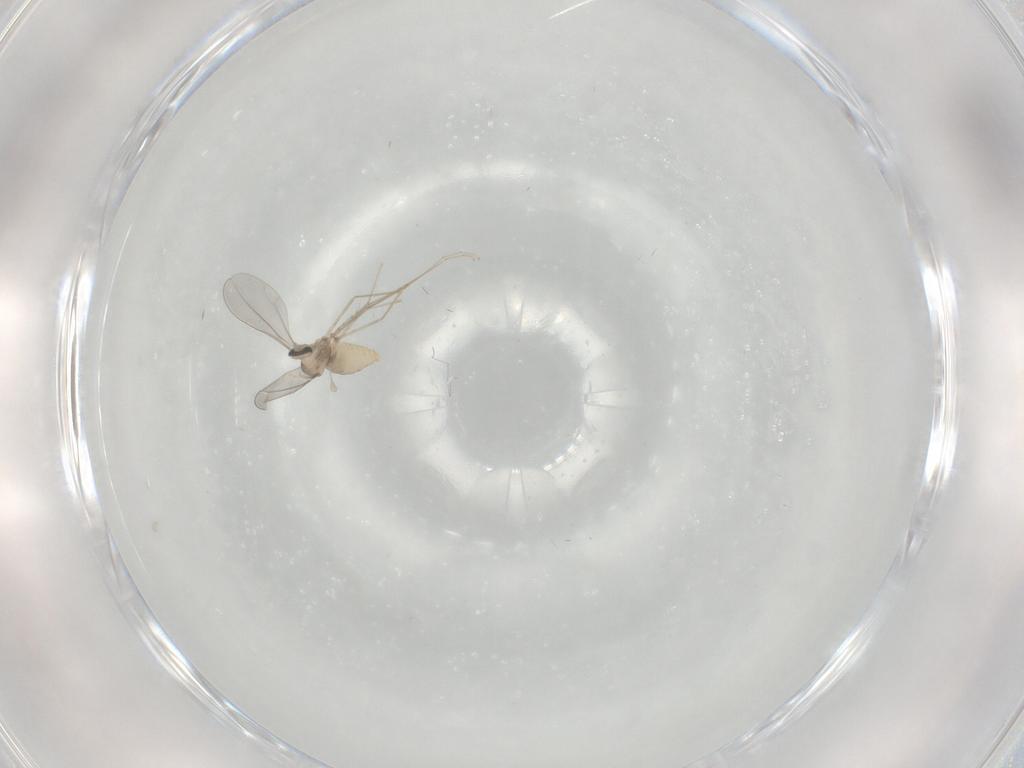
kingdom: Animalia
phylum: Arthropoda
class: Insecta
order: Diptera
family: Cecidomyiidae
